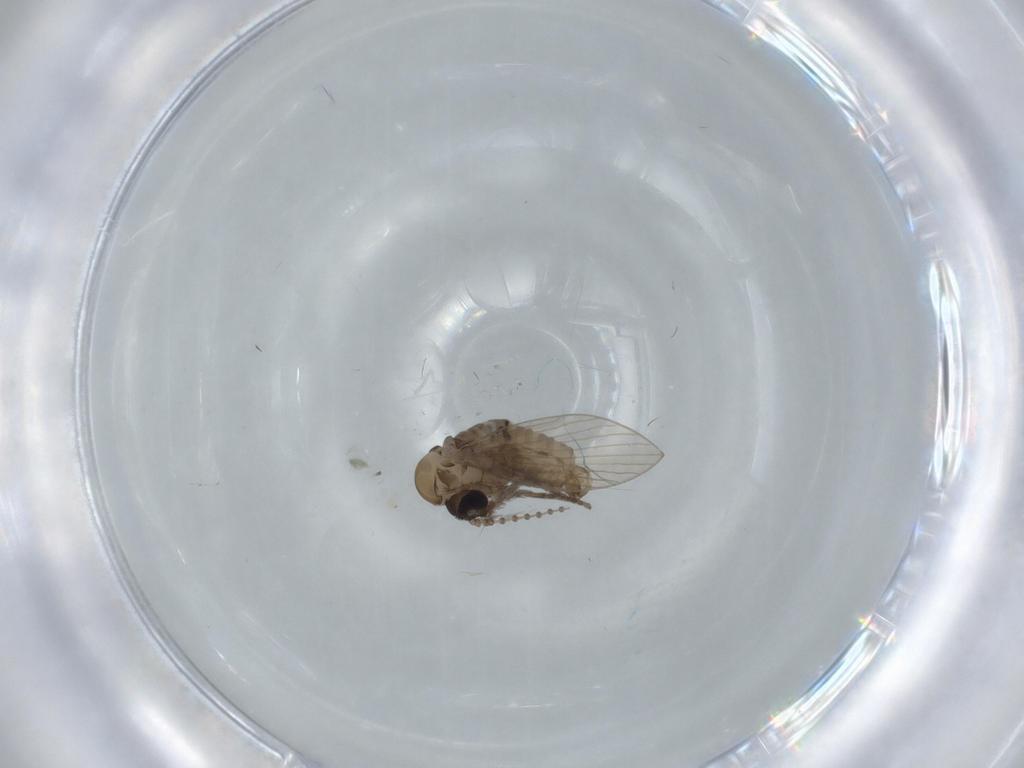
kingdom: Animalia
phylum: Arthropoda
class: Insecta
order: Diptera
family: Psychodidae
